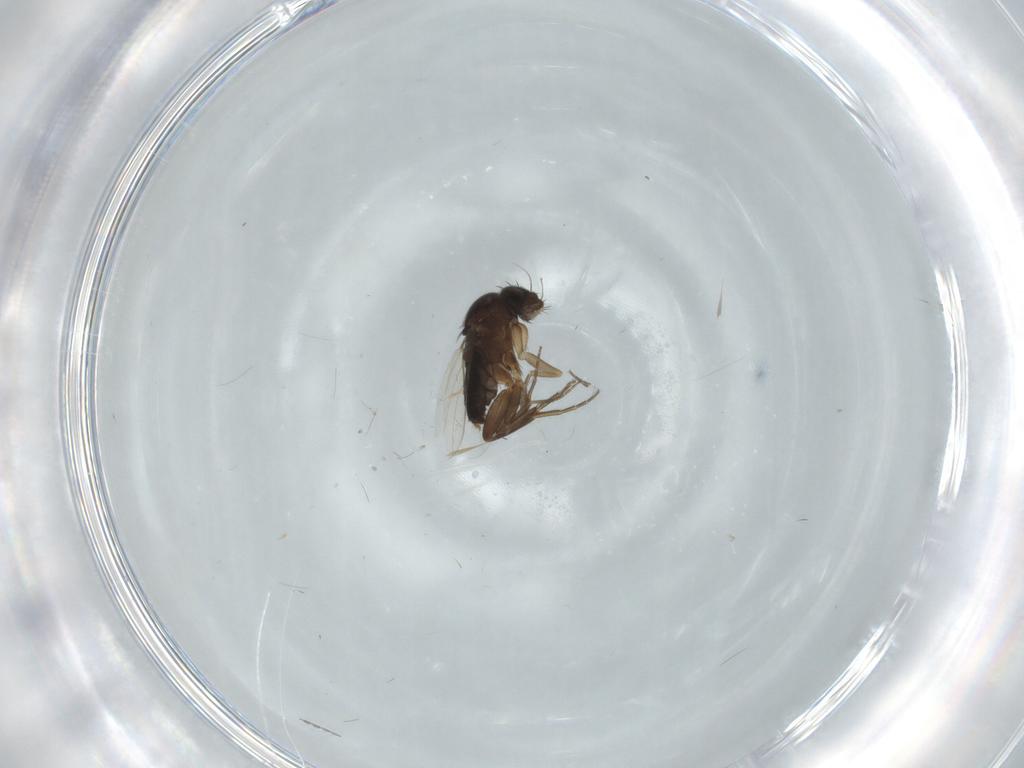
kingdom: Animalia
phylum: Arthropoda
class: Insecta
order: Diptera
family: Phoridae
